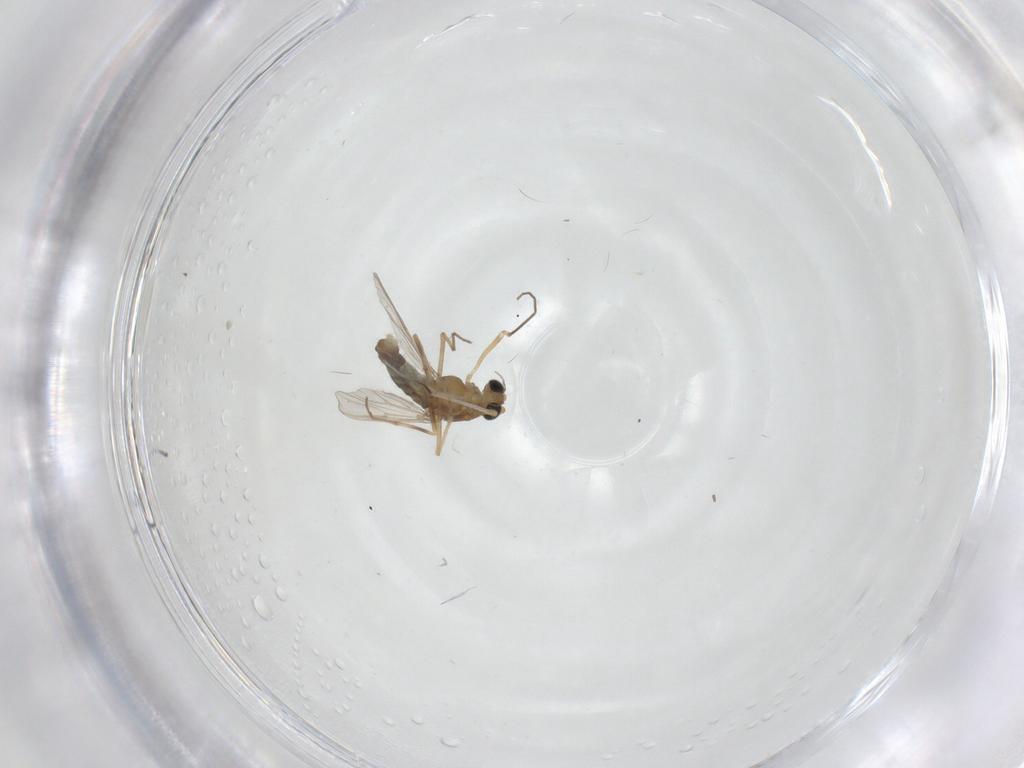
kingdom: Animalia
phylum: Arthropoda
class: Insecta
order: Diptera
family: Chironomidae
